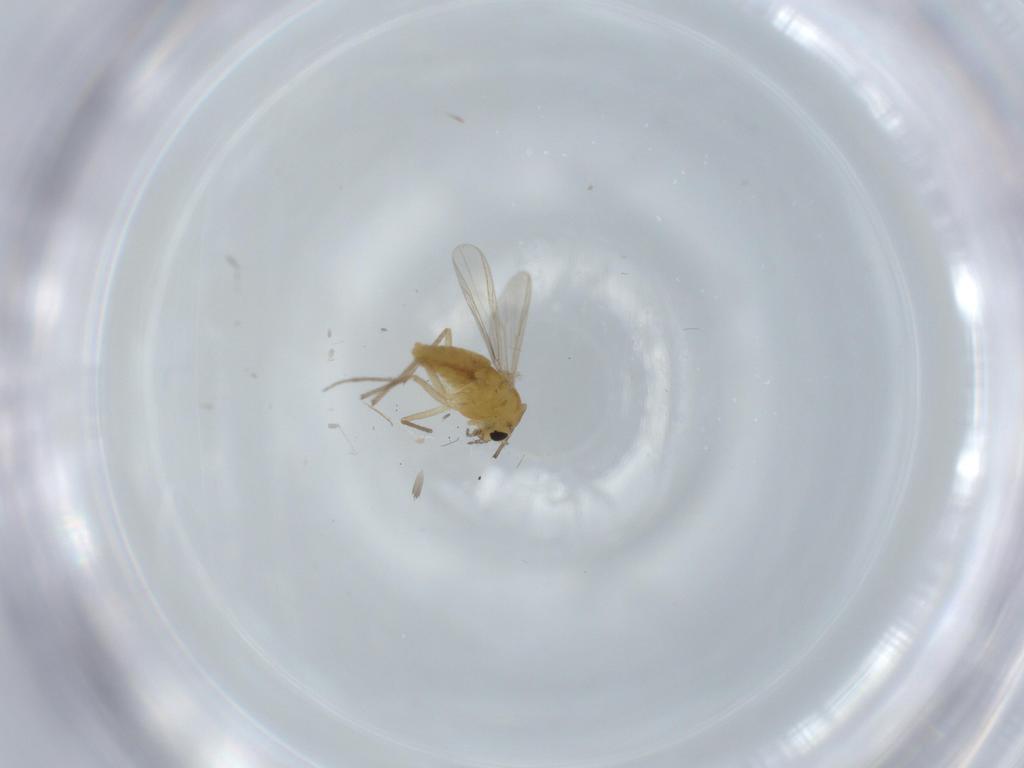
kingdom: Animalia
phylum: Arthropoda
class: Insecta
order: Diptera
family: Chironomidae
